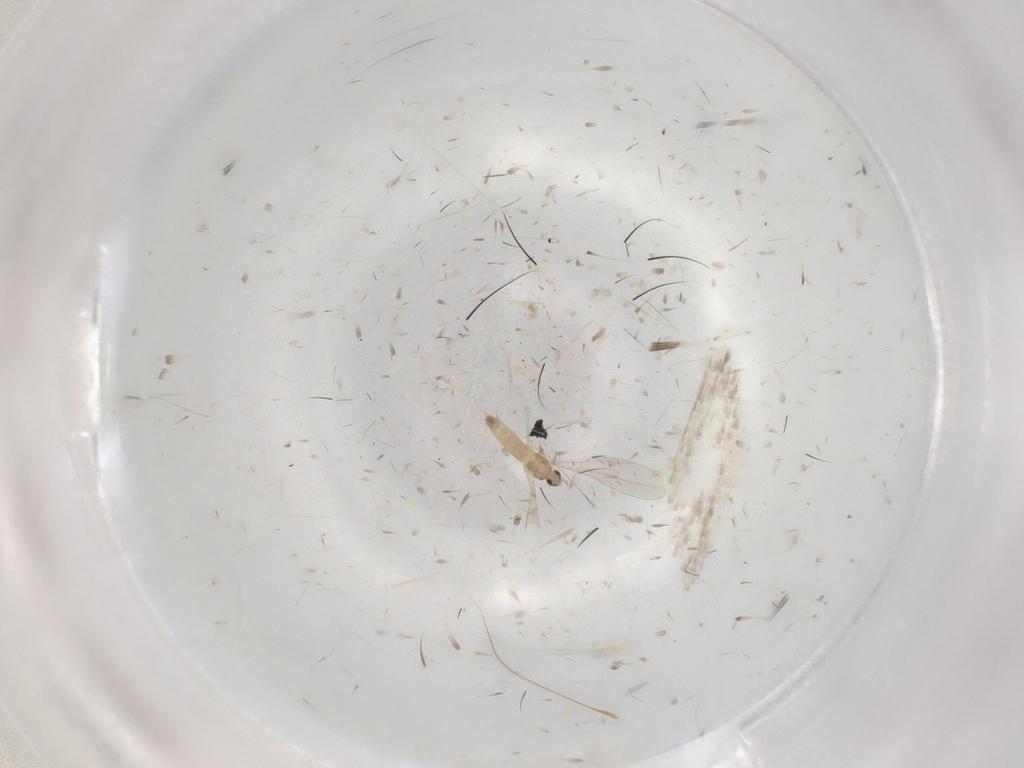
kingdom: Animalia
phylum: Arthropoda
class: Insecta
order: Diptera
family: Cecidomyiidae
